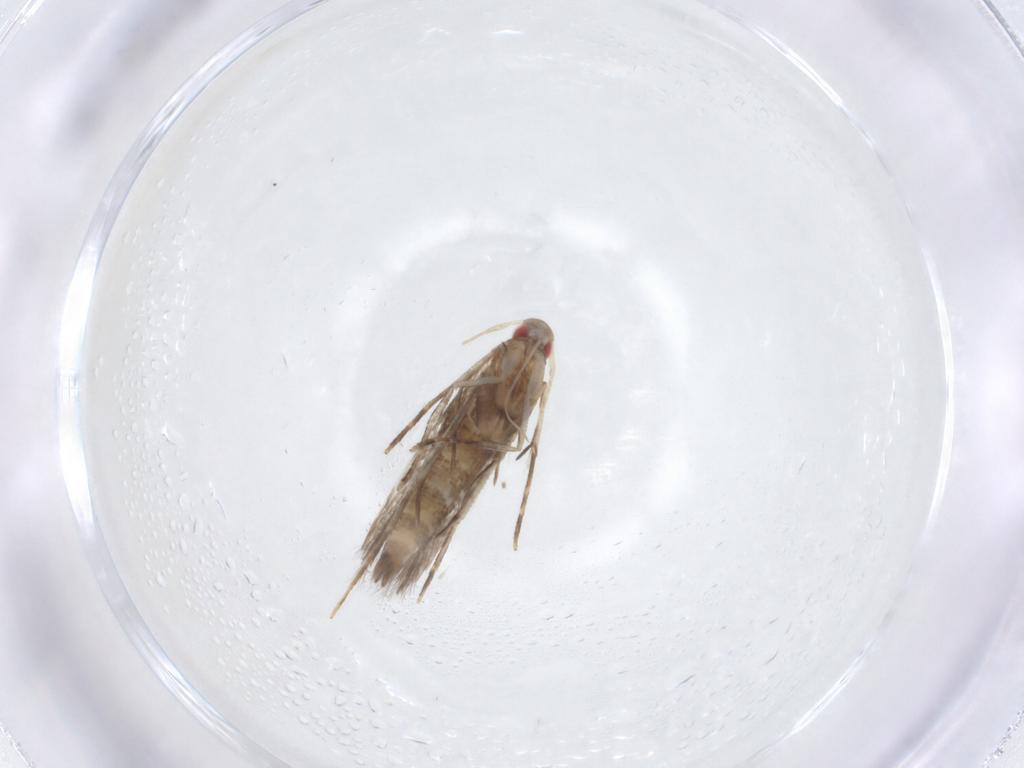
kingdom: Animalia
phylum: Arthropoda
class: Insecta
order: Lepidoptera
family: Cosmopterigidae
